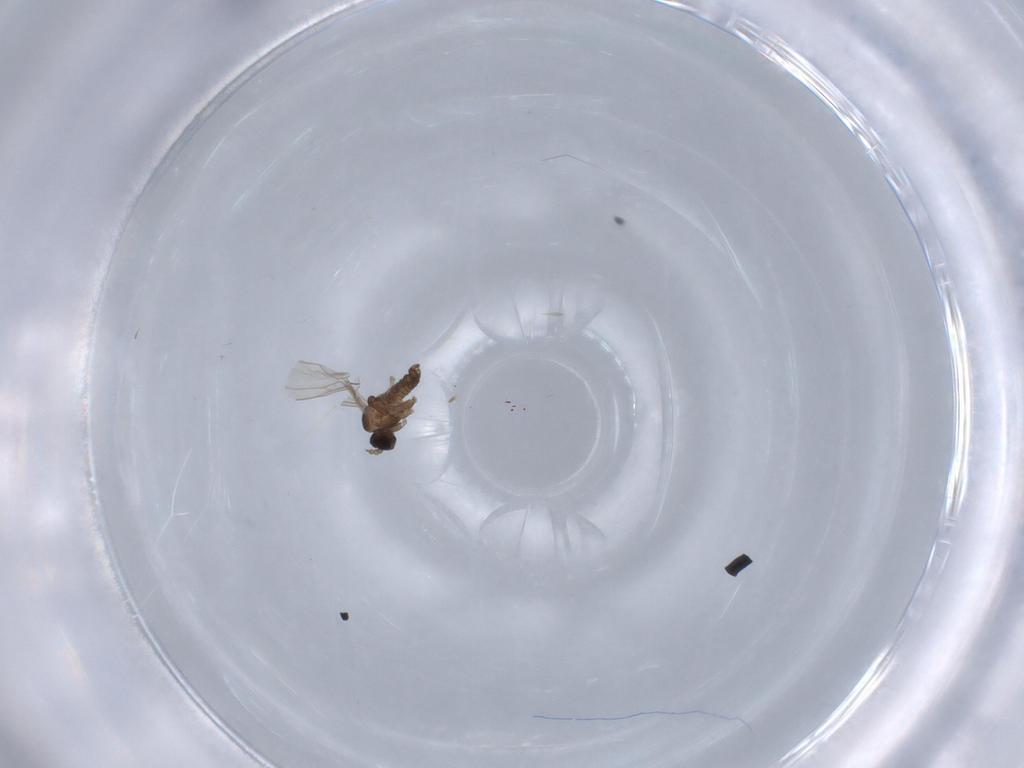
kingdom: Animalia
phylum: Arthropoda
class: Insecta
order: Diptera
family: Cecidomyiidae
